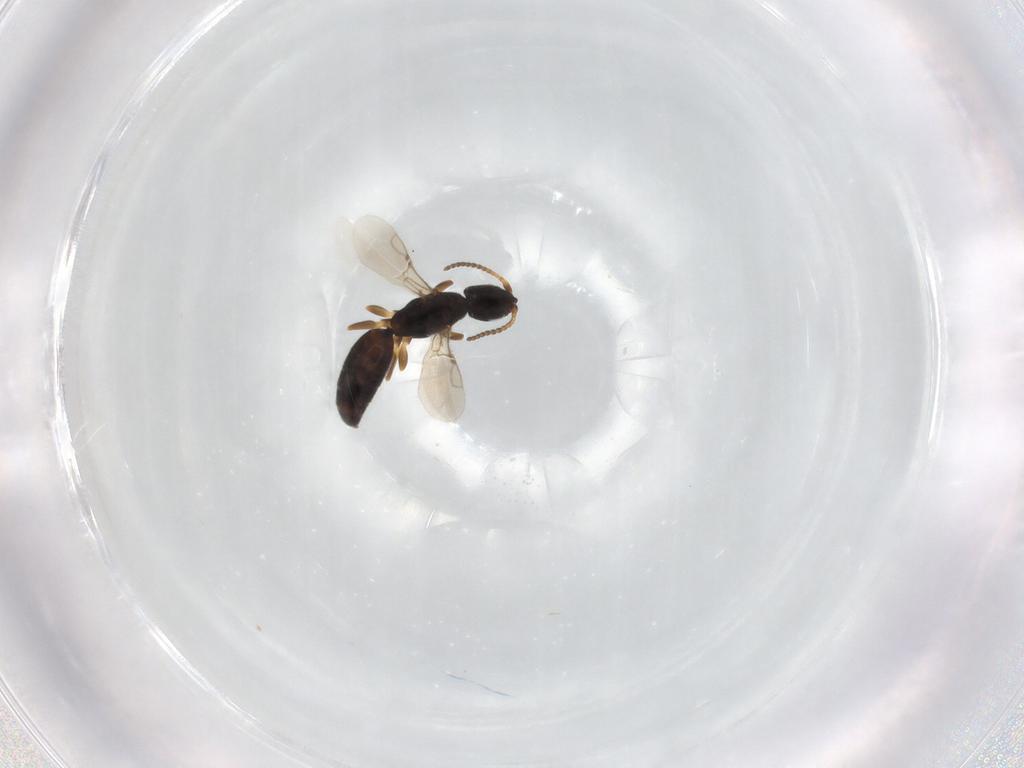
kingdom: Animalia
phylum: Arthropoda
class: Insecta
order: Hymenoptera
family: Bethylidae
